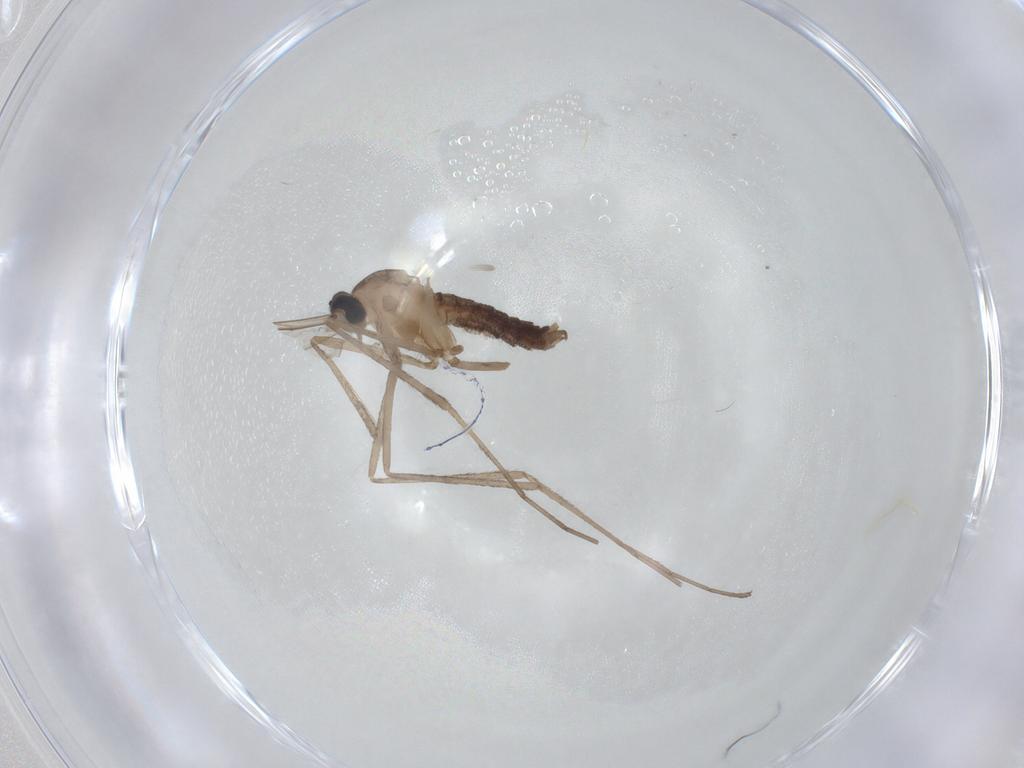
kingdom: Animalia
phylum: Arthropoda
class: Insecta
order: Diptera
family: Cecidomyiidae
